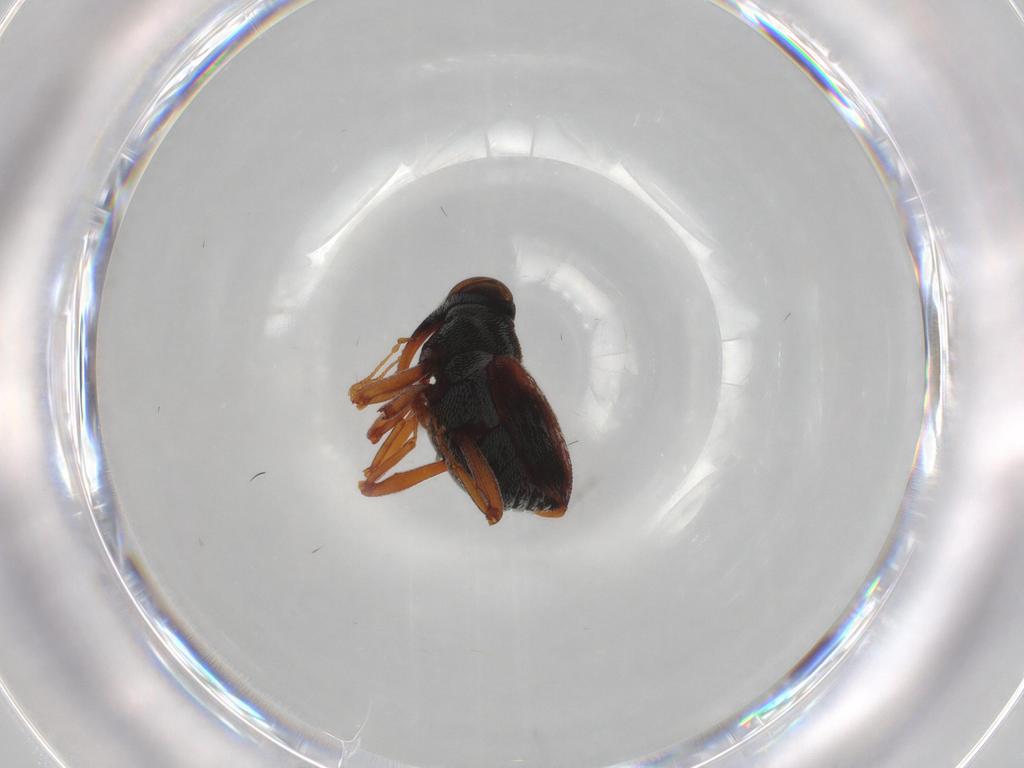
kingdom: Animalia
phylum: Arthropoda
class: Insecta
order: Coleoptera
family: Curculionidae
